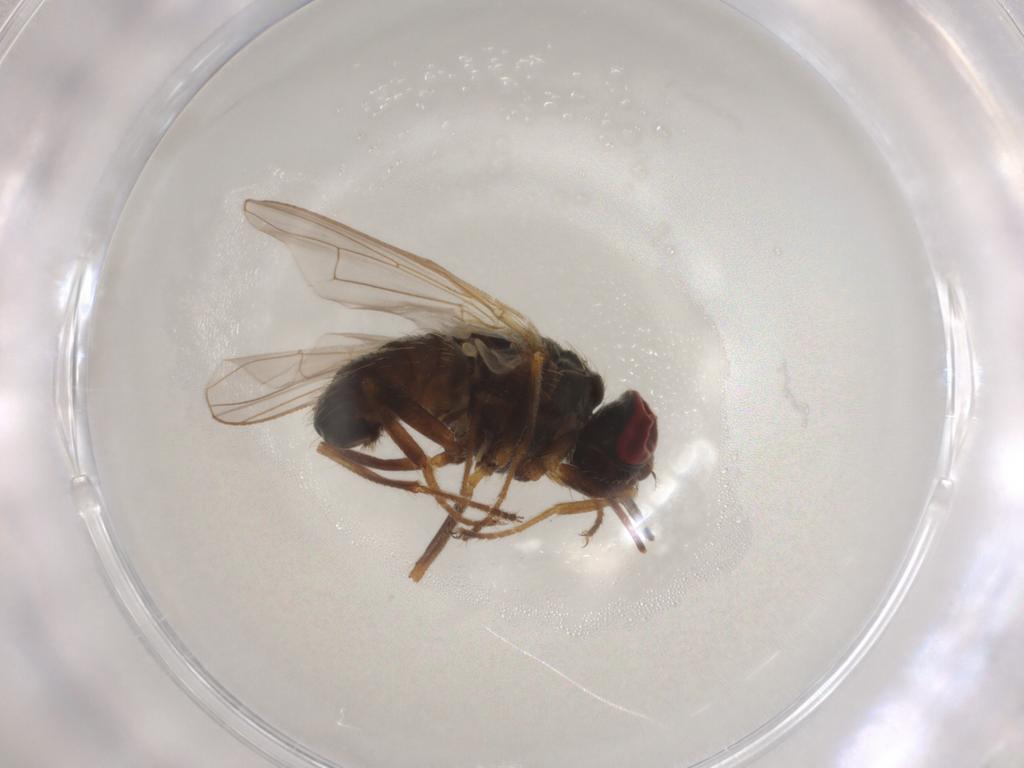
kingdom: Animalia
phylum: Arthropoda
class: Insecta
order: Diptera
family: Muscidae
